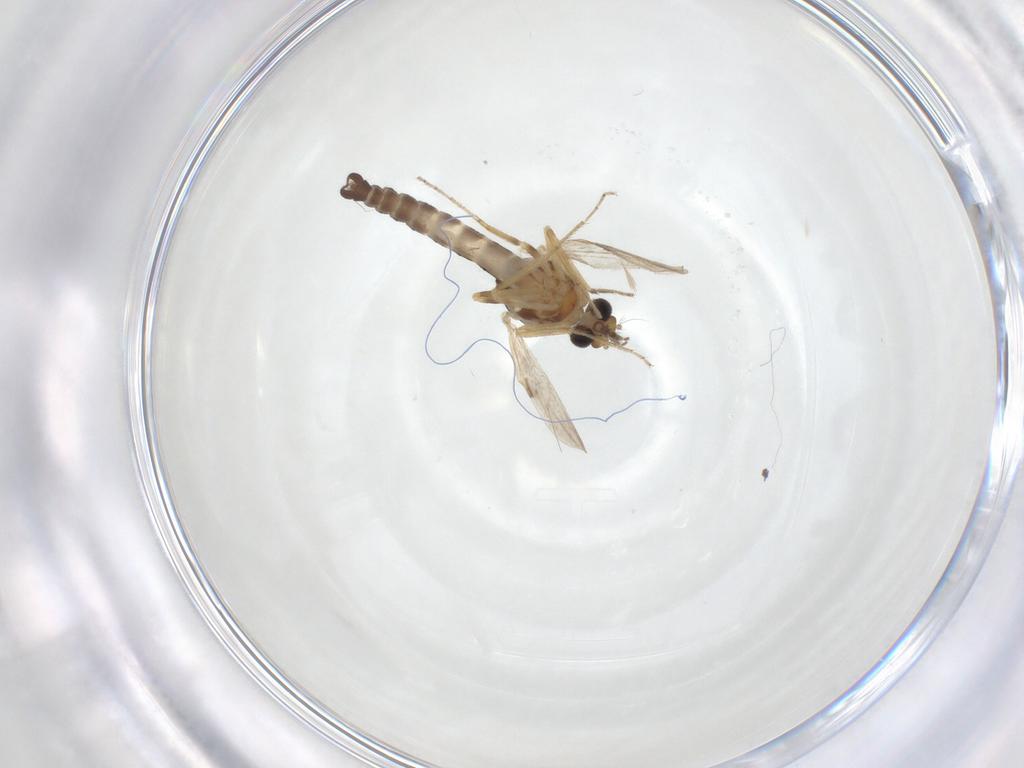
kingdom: Animalia
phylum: Arthropoda
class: Insecta
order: Diptera
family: Ceratopogonidae
